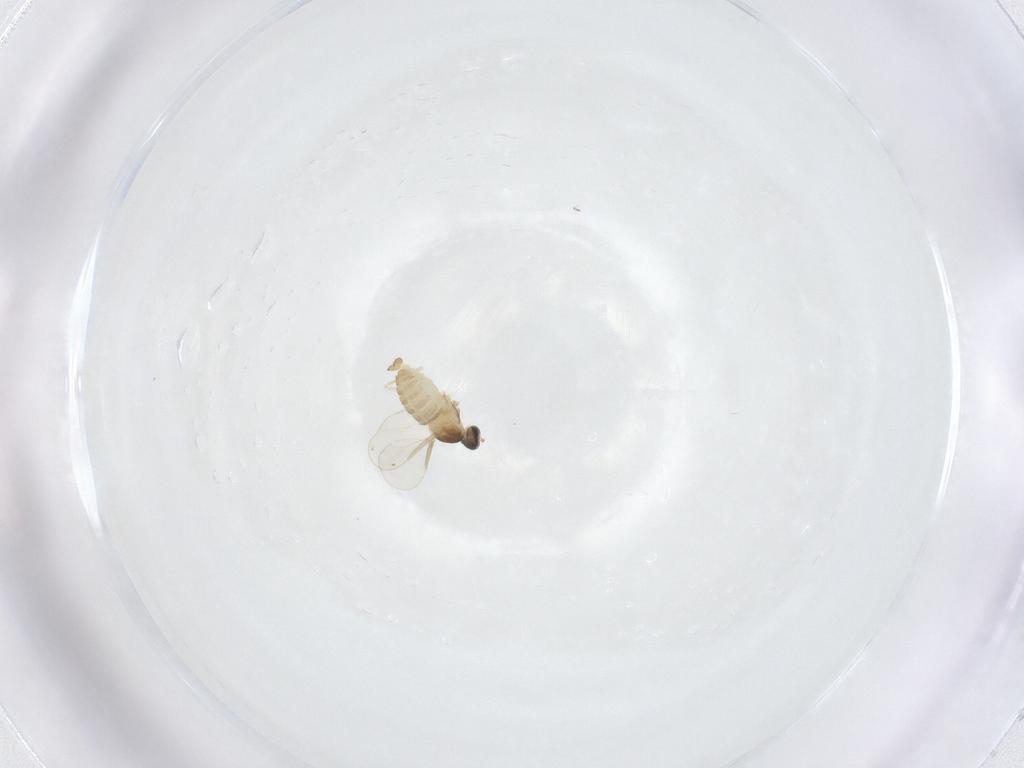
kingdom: Animalia
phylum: Arthropoda
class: Insecta
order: Diptera
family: Cecidomyiidae
